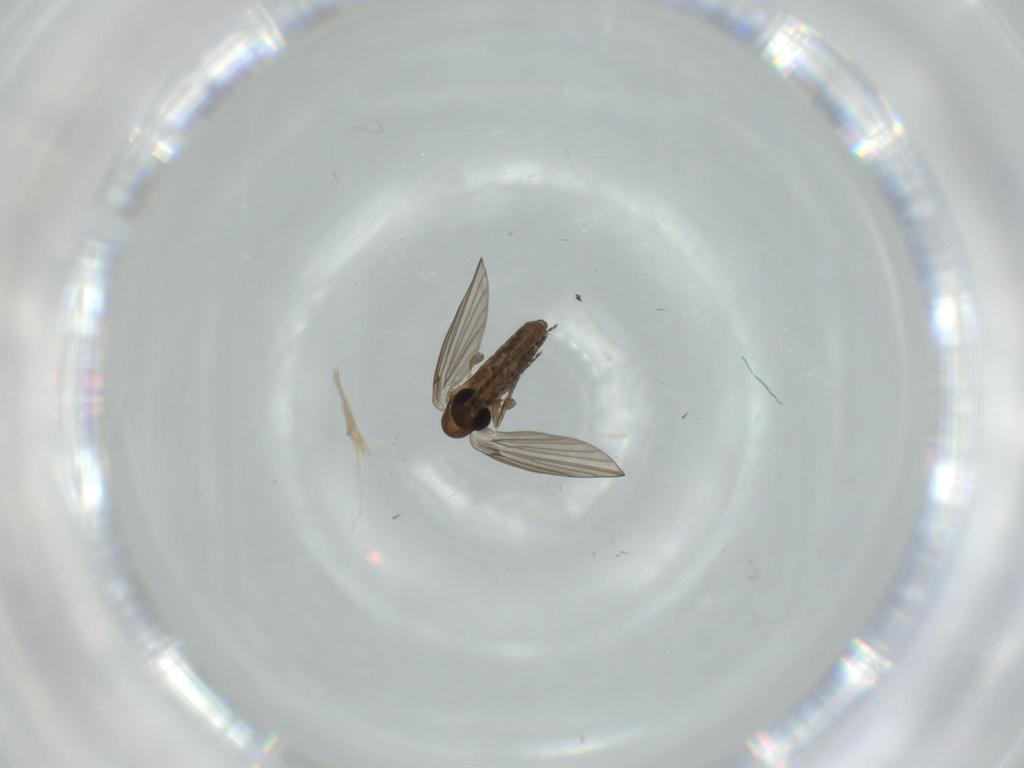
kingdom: Animalia
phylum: Arthropoda
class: Insecta
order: Diptera
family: Psychodidae
